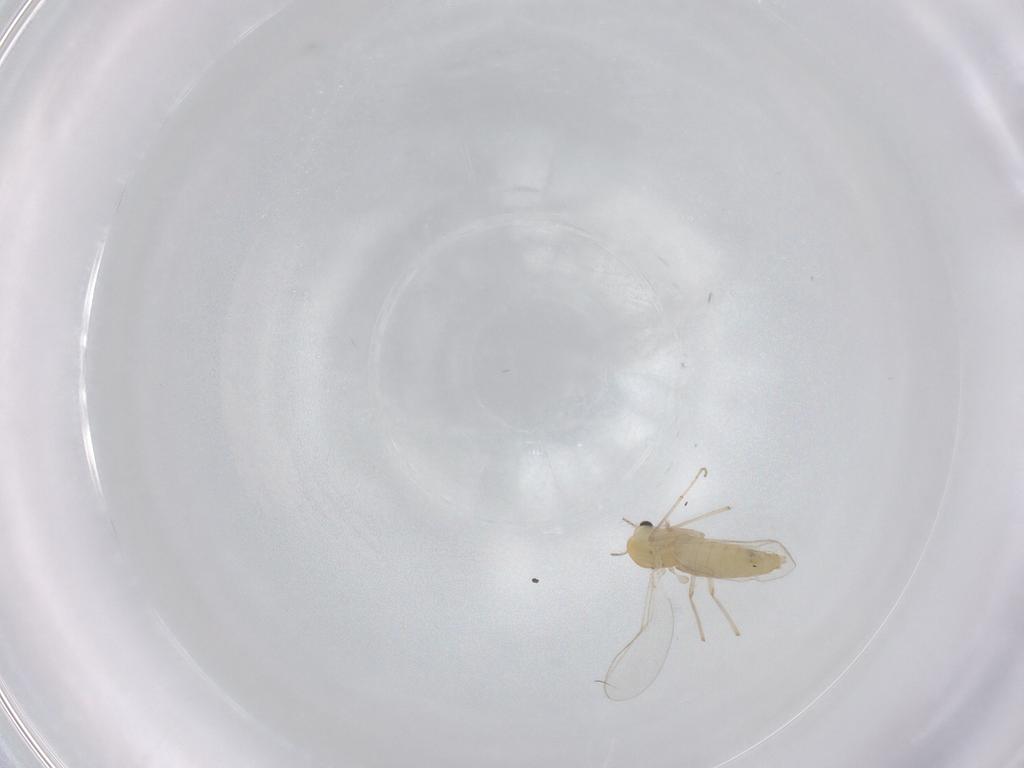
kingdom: Animalia
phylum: Arthropoda
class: Insecta
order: Diptera
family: Chironomidae
